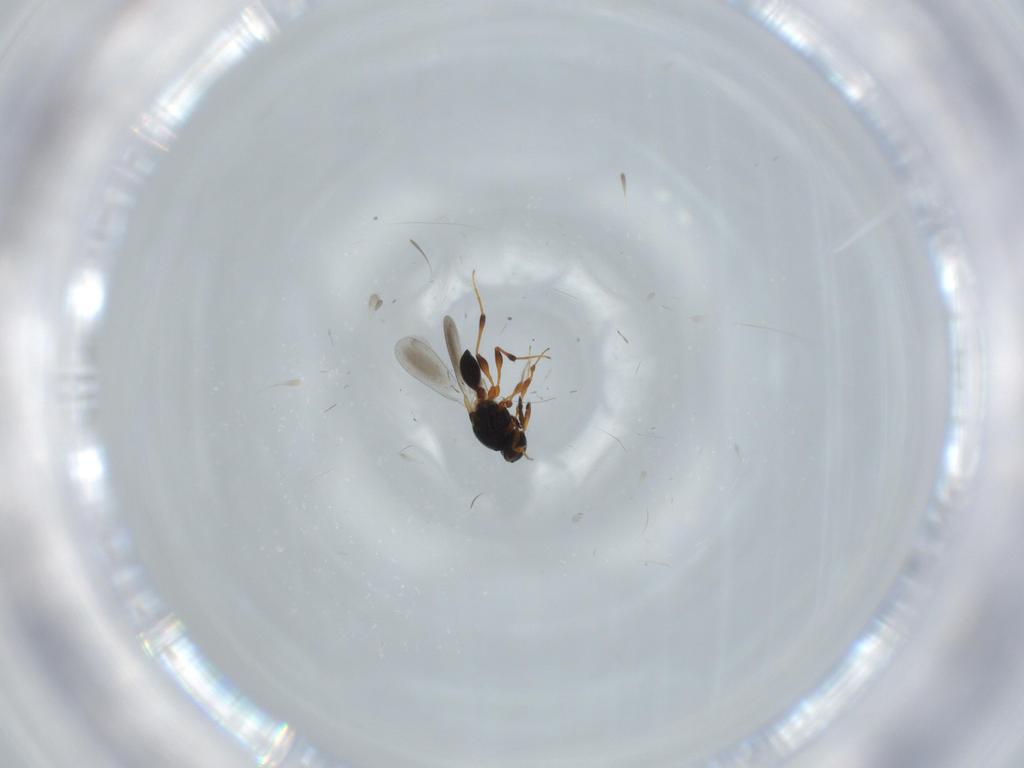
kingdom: Animalia
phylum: Arthropoda
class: Insecta
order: Hymenoptera
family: Platygastridae
